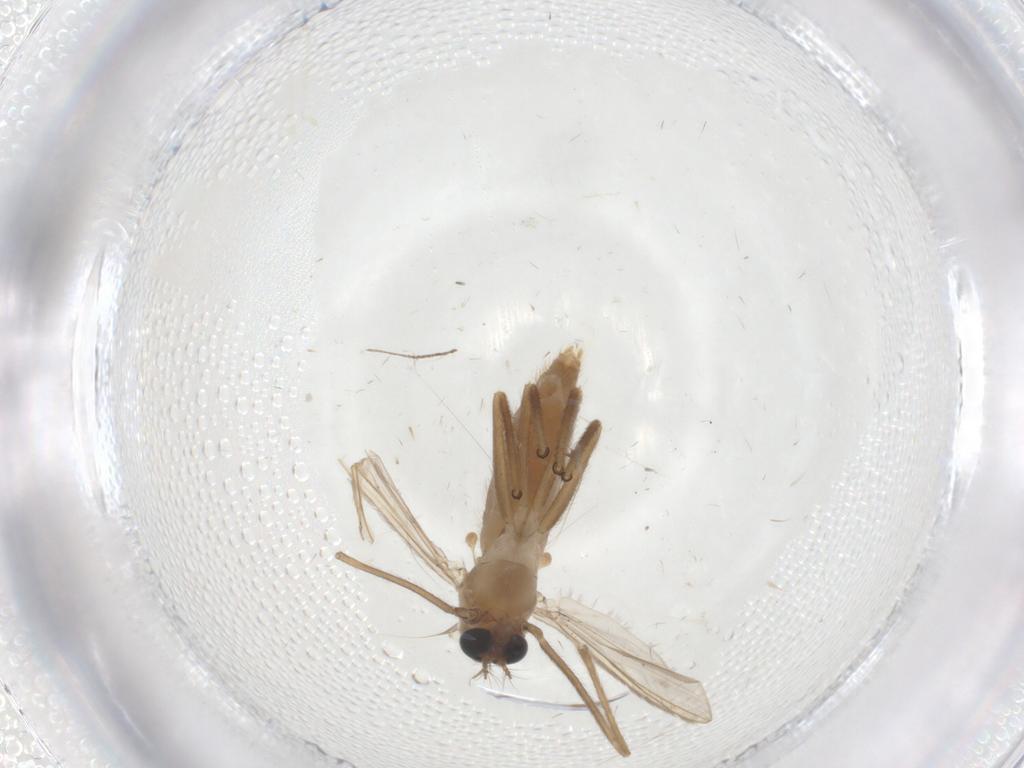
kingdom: Animalia
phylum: Arthropoda
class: Insecta
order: Diptera
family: Chironomidae
